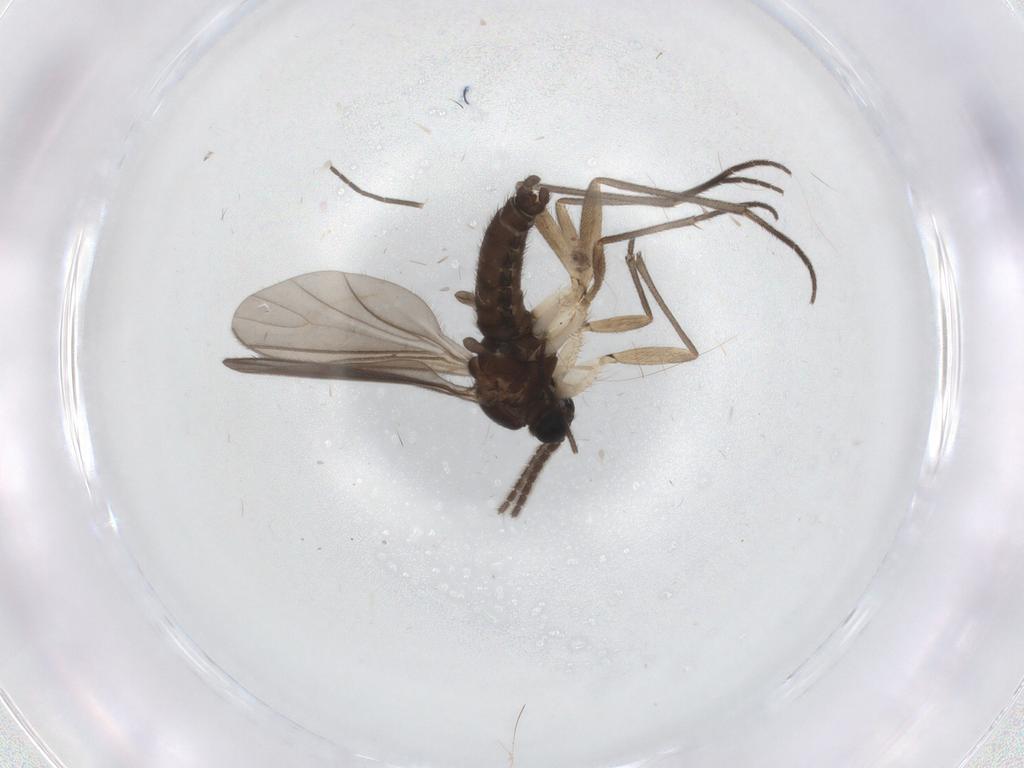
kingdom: Animalia
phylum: Arthropoda
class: Insecta
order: Diptera
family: Sciaridae
